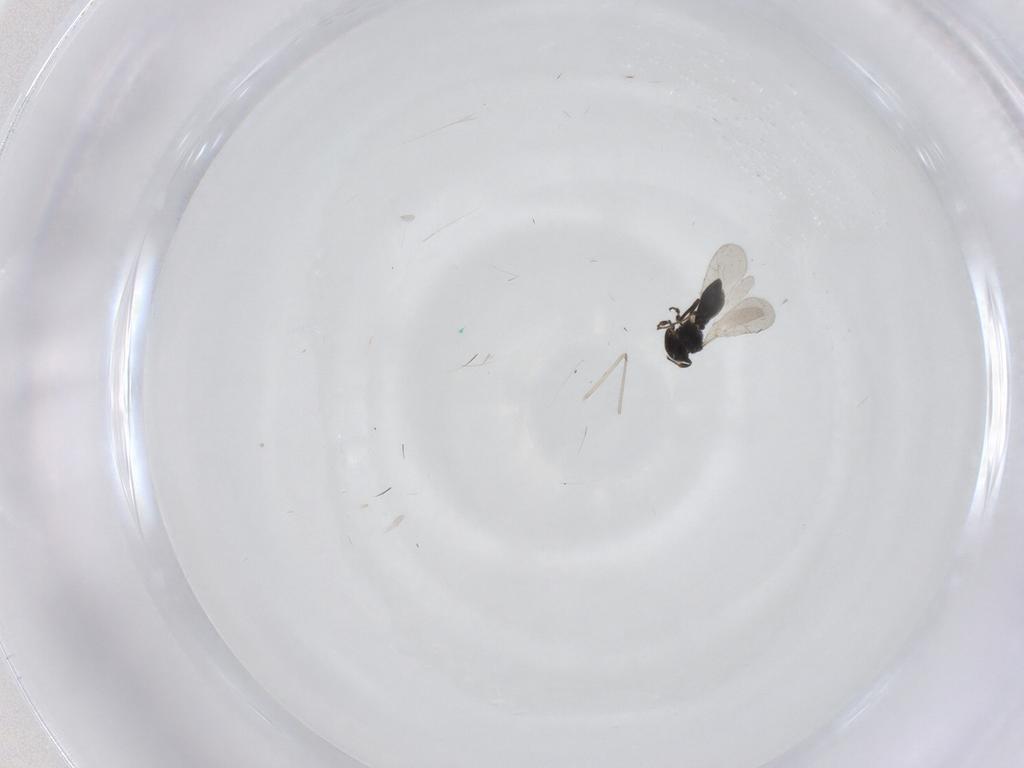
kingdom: Animalia
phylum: Arthropoda
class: Insecta
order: Hymenoptera
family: Platygastridae
